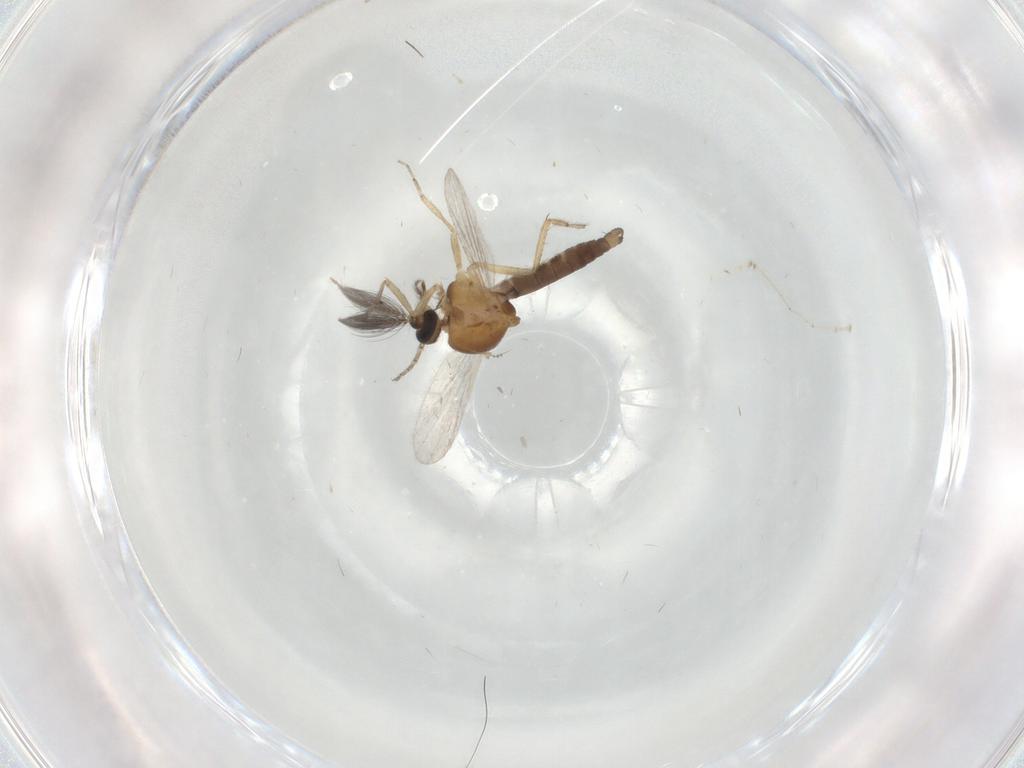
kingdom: Animalia
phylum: Arthropoda
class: Insecta
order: Diptera
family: Ceratopogonidae
